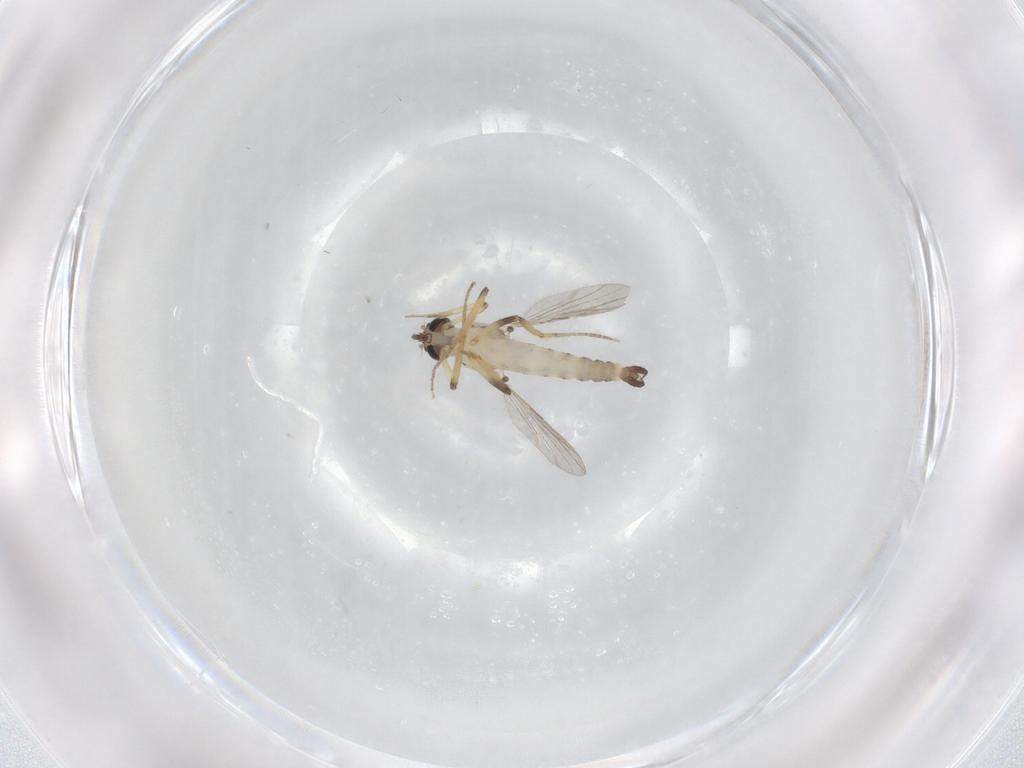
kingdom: Animalia
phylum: Arthropoda
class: Insecta
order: Diptera
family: Ceratopogonidae
